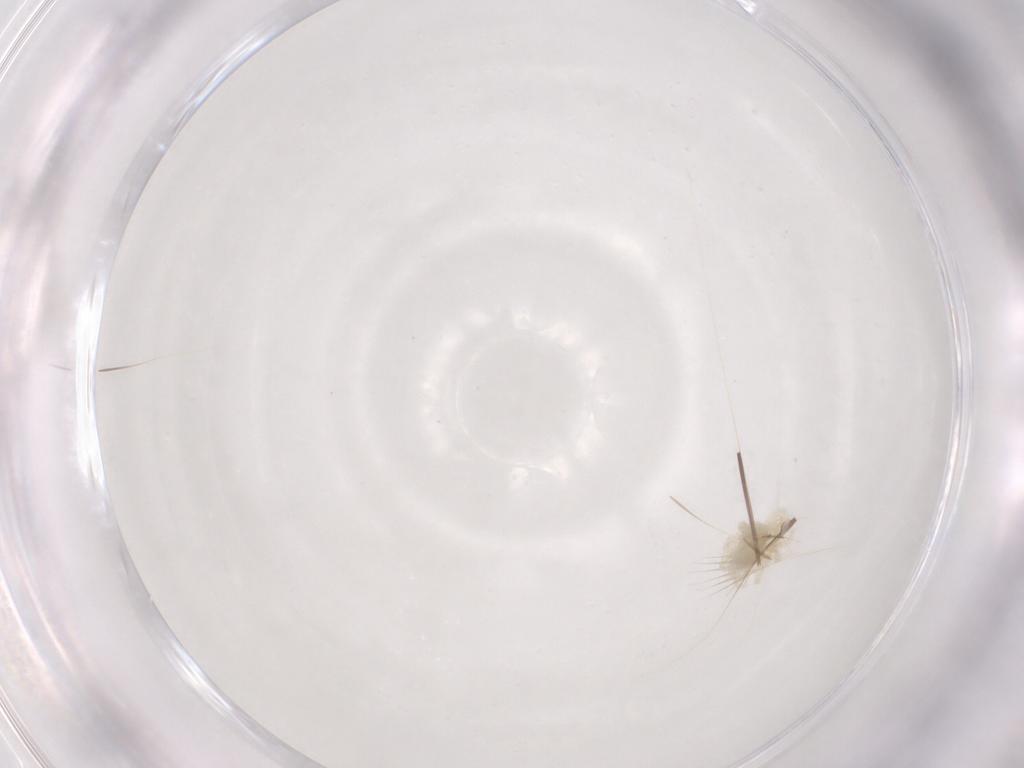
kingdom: Animalia
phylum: Arthropoda
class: Arachnida
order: Trombidiformes
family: Anystidae
